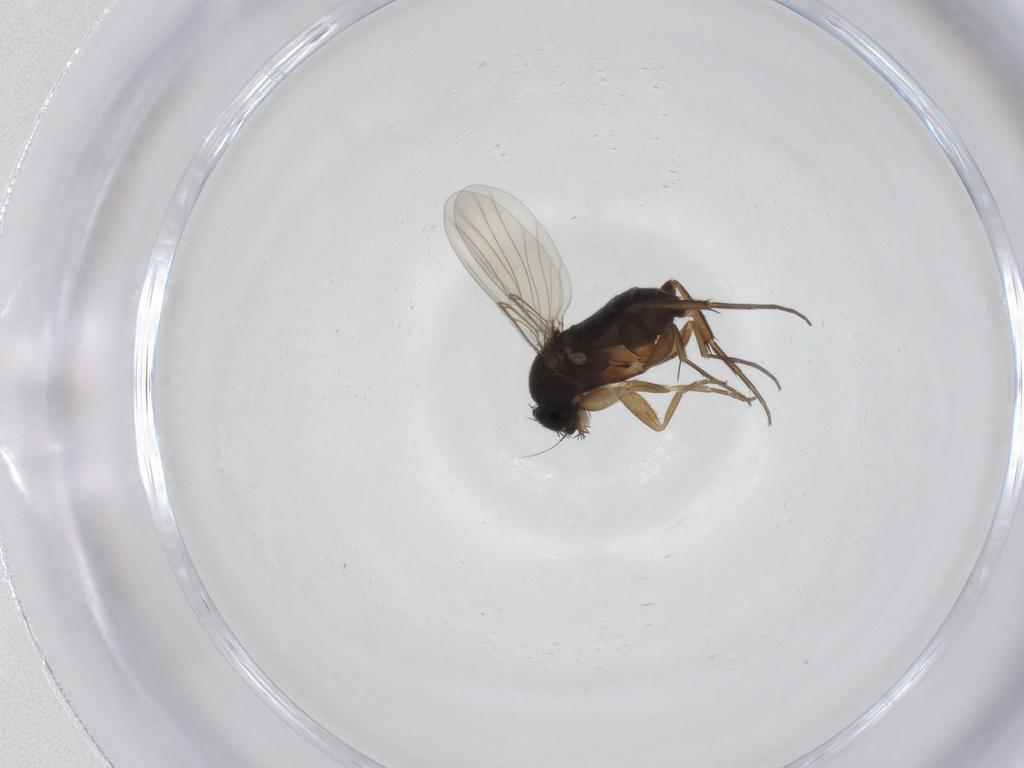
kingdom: Animalia
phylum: Arthropoda
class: Insecta
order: Diptera
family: Phoridae
